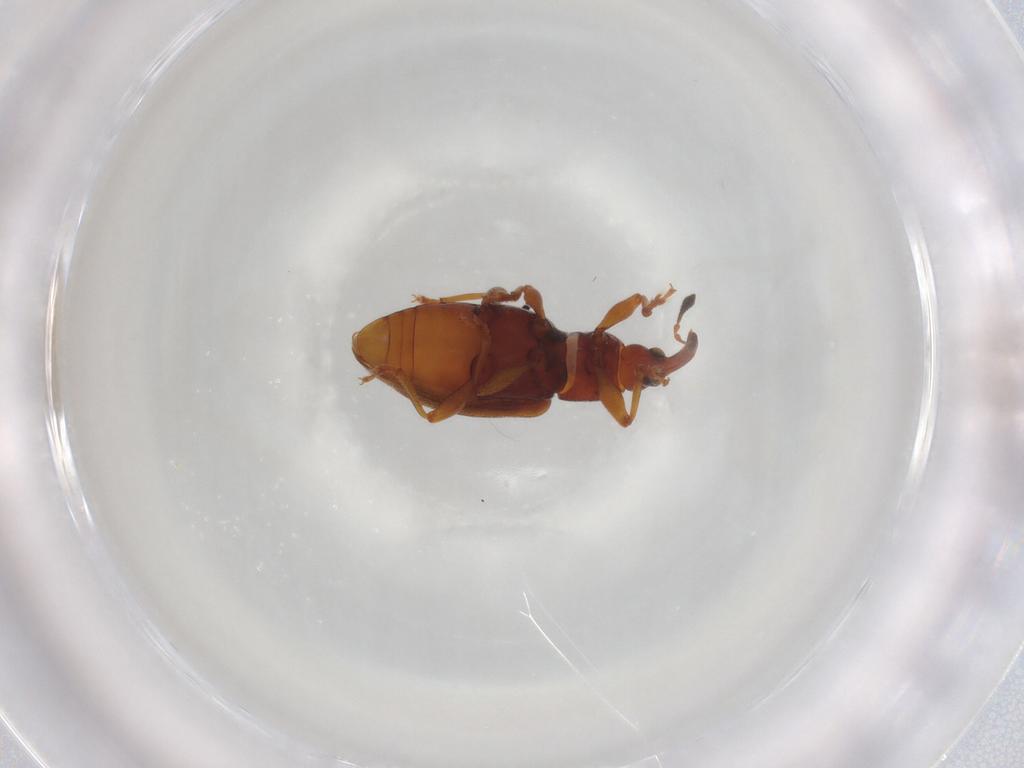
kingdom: Animalia
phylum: Arthropoda
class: Insecta
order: Coleoptera
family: Curculionidae
